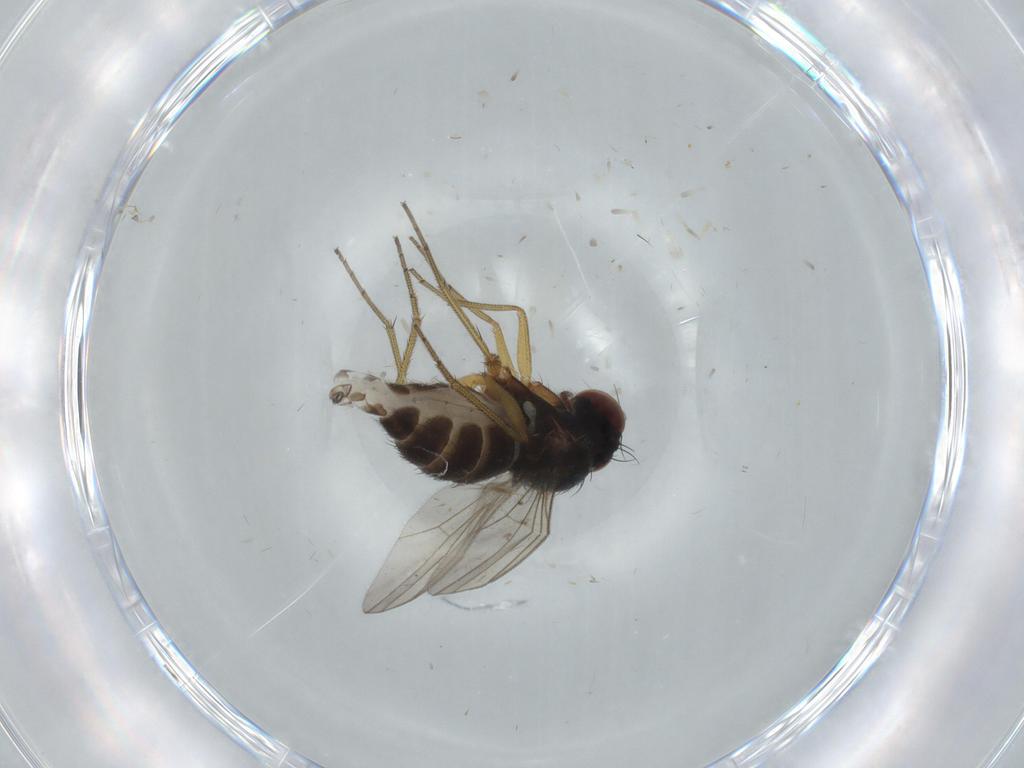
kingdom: Animalia
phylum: Arthropoda
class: Insecta
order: Diptera
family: Dolichopodidae
